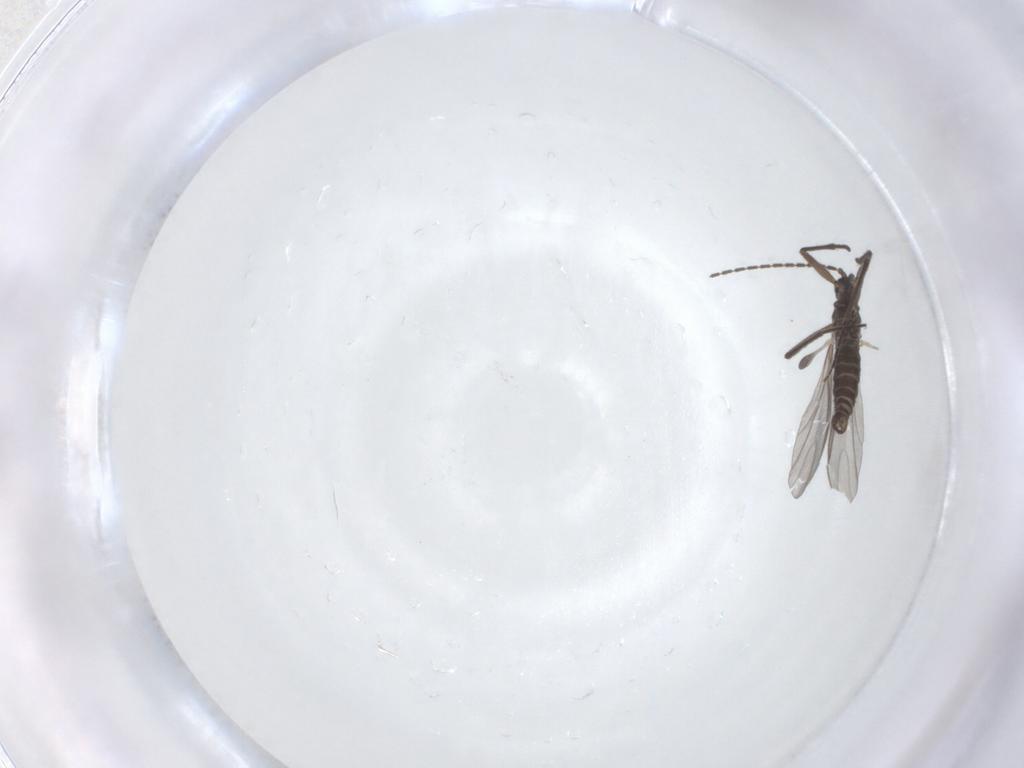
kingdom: Animalia
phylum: Arthropoda
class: Insecta
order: Diptera
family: Sciaridae
